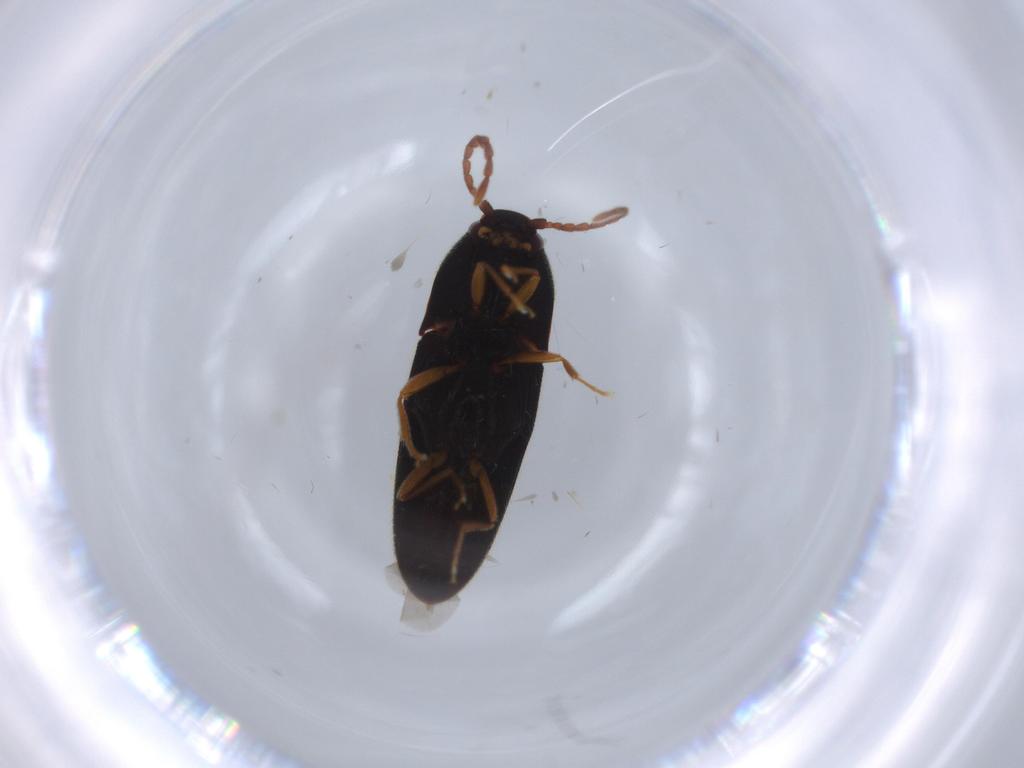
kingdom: Animalia
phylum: Arthropoda
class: Insecta
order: Coleoptera
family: Elateridae
